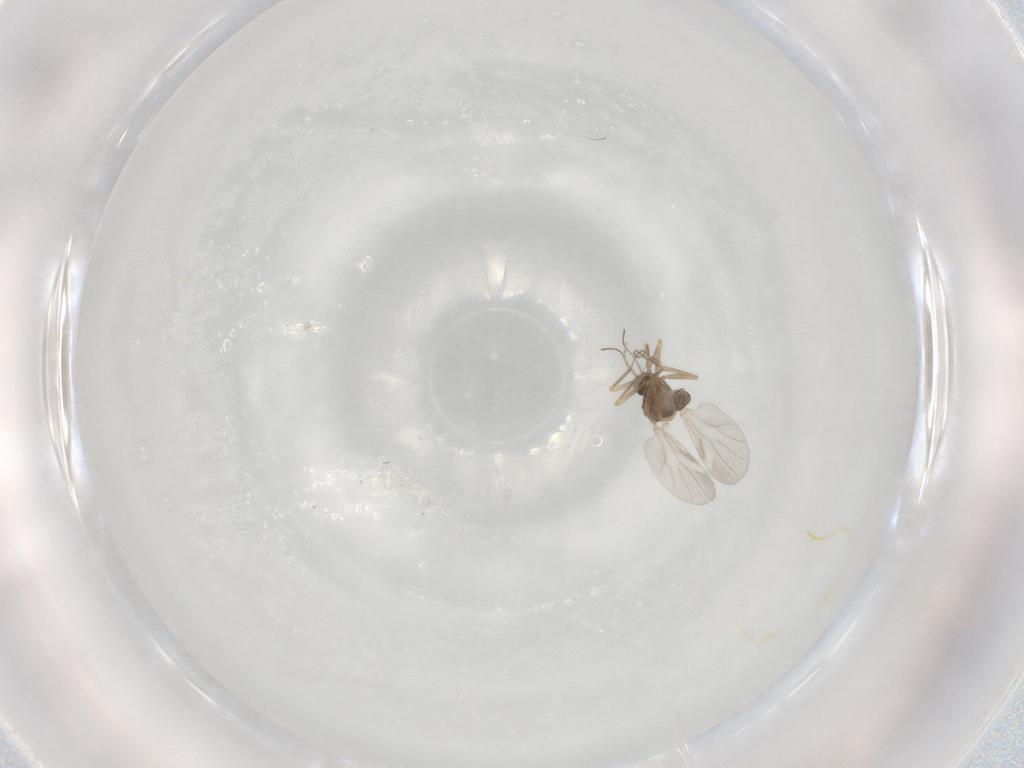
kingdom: Animalia
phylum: Arthropoda
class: Insecta
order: Diptera
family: Ceratopogonidae
